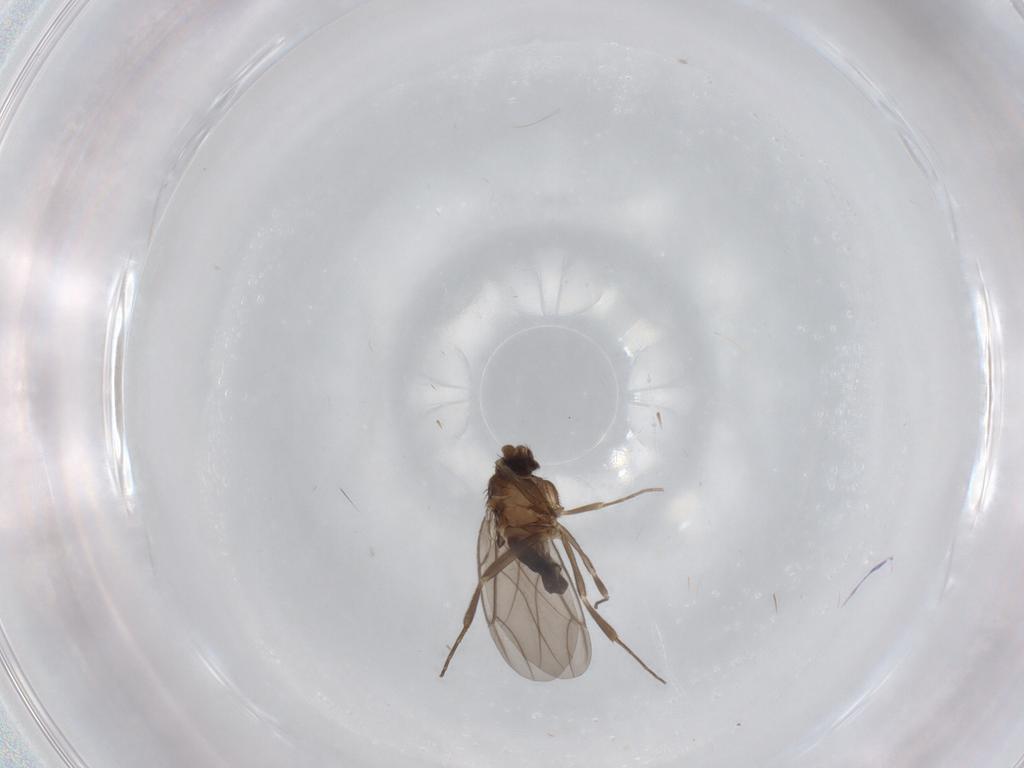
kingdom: Animalia
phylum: Arthropoda
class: Insecta
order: Diptera
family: Phoridae
